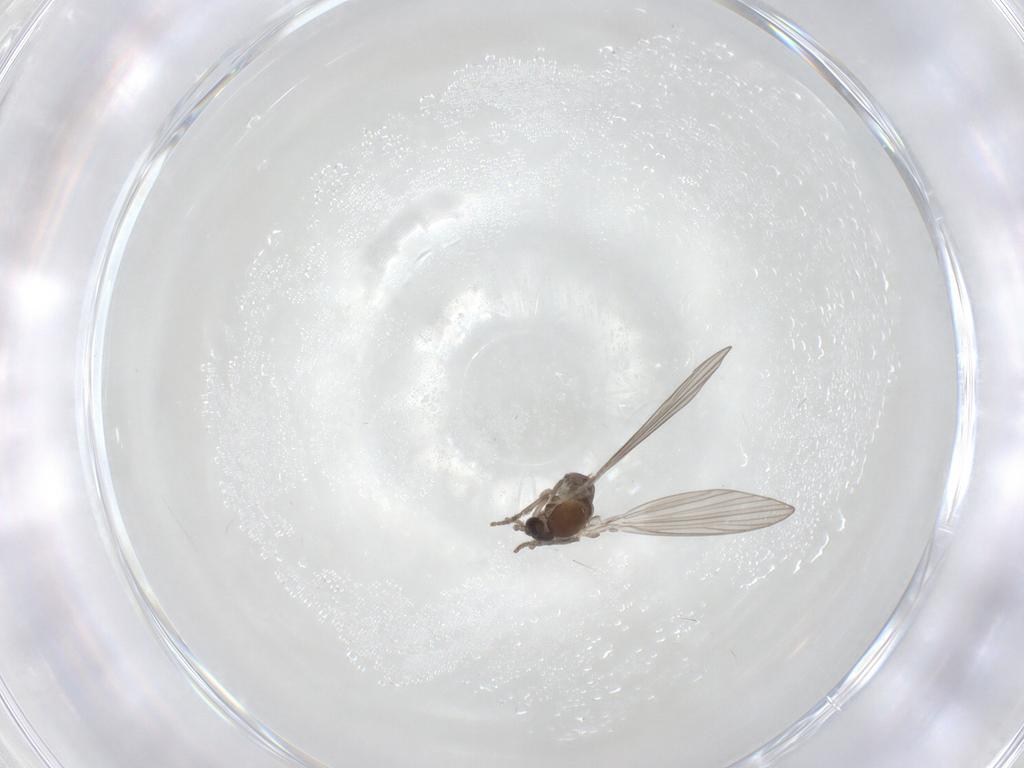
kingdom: Animalia
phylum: Arthropoda
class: Insecta
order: Diptera
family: Psychodidae
